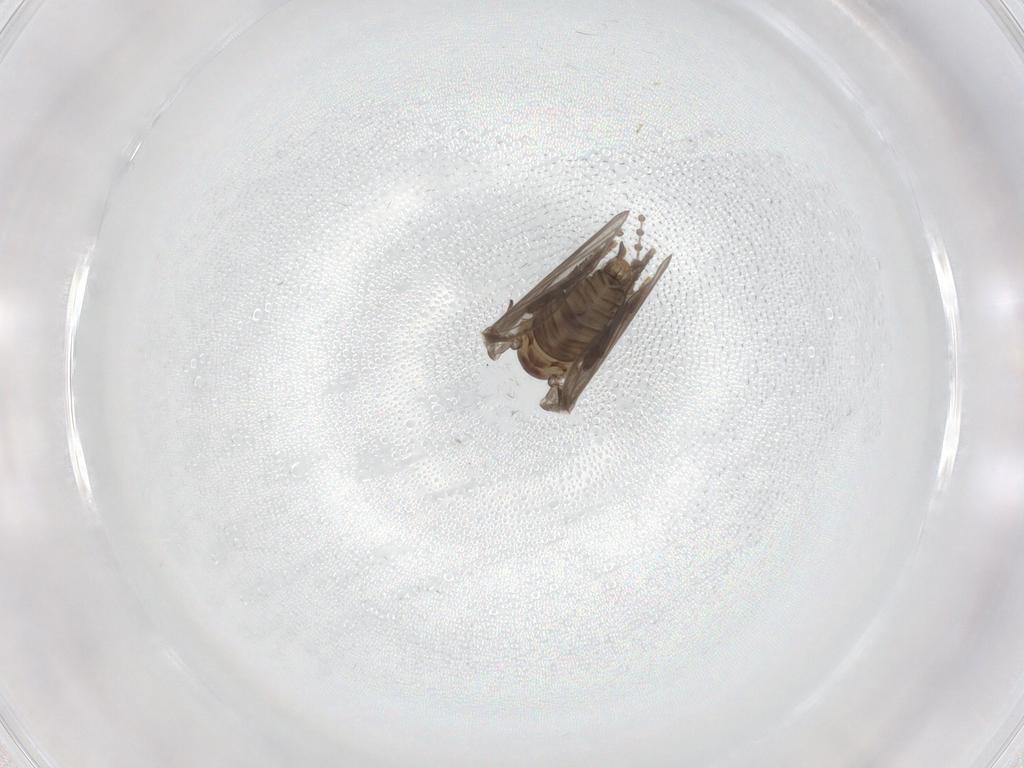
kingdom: Animalia
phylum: Arthropoda
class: Insecta
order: Diptera
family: Psychodidae
